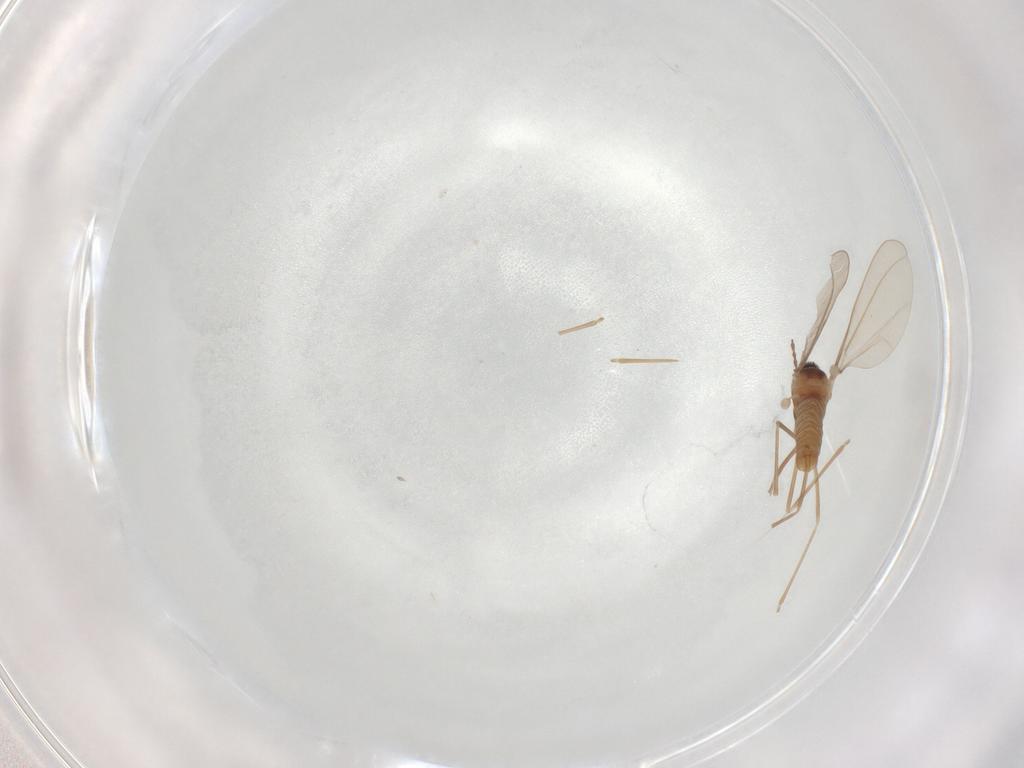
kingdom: Animalia
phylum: Arthropoda
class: Insecta
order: Diptera
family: Cecidomyiidae
